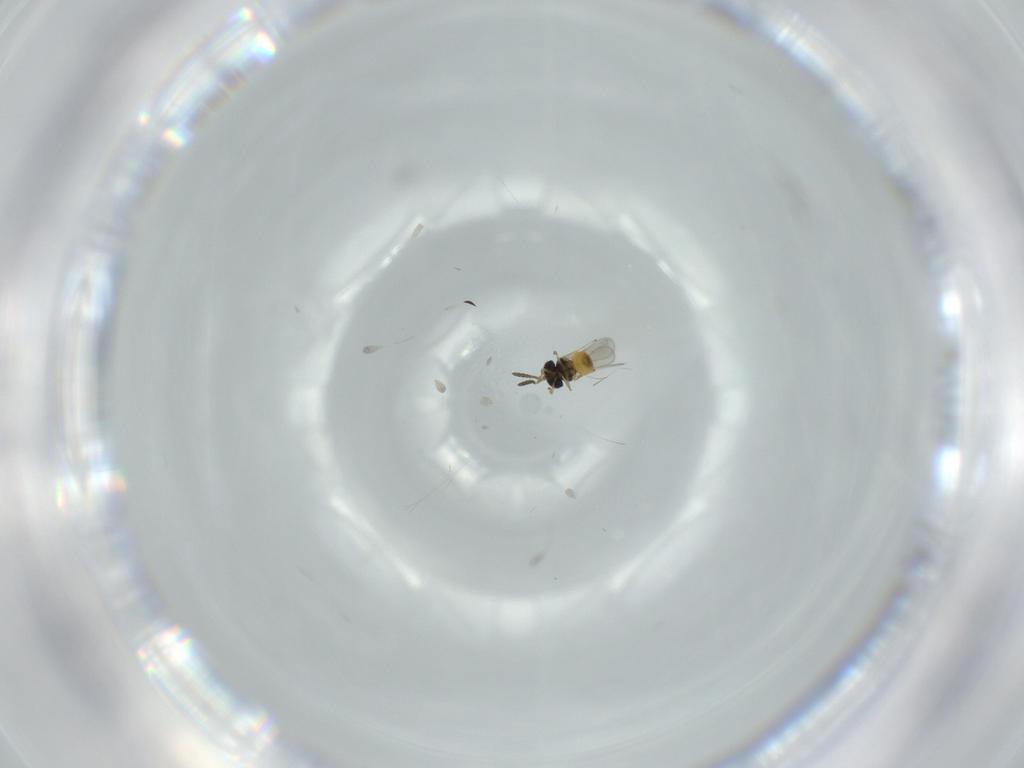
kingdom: Animalia
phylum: Arthropoda
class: Insecta
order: Hymenoptera
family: Scelionidae
